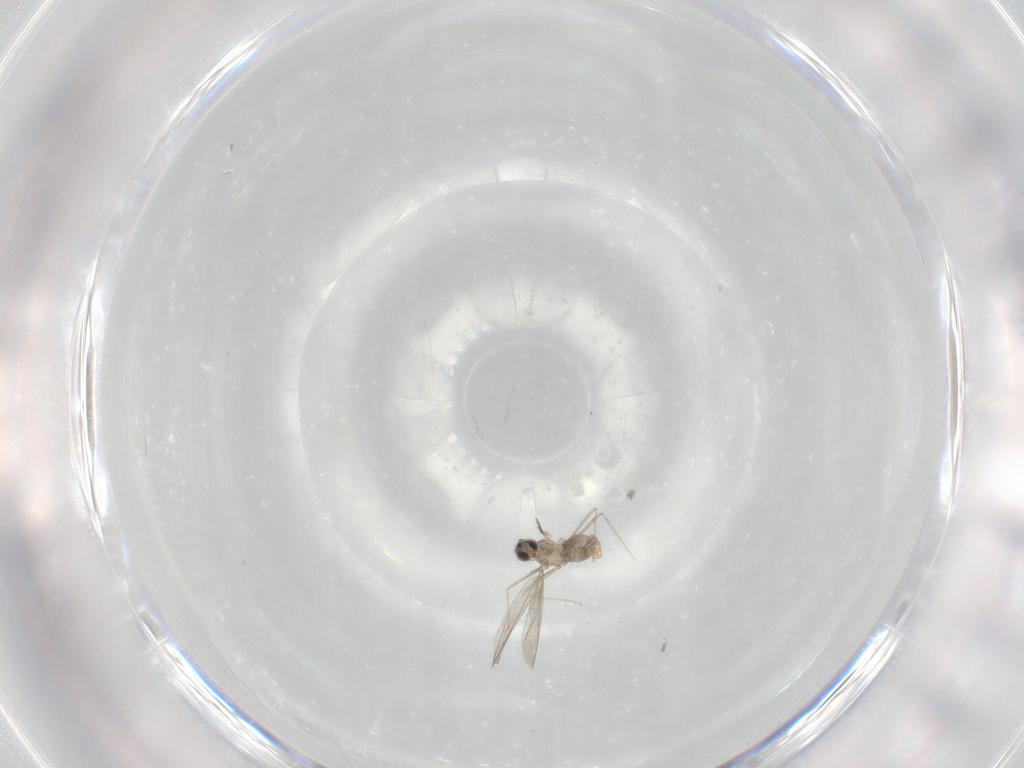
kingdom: Animalia
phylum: Arthropoda
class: Insecta
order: Diptera
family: Cecidomyiidae
